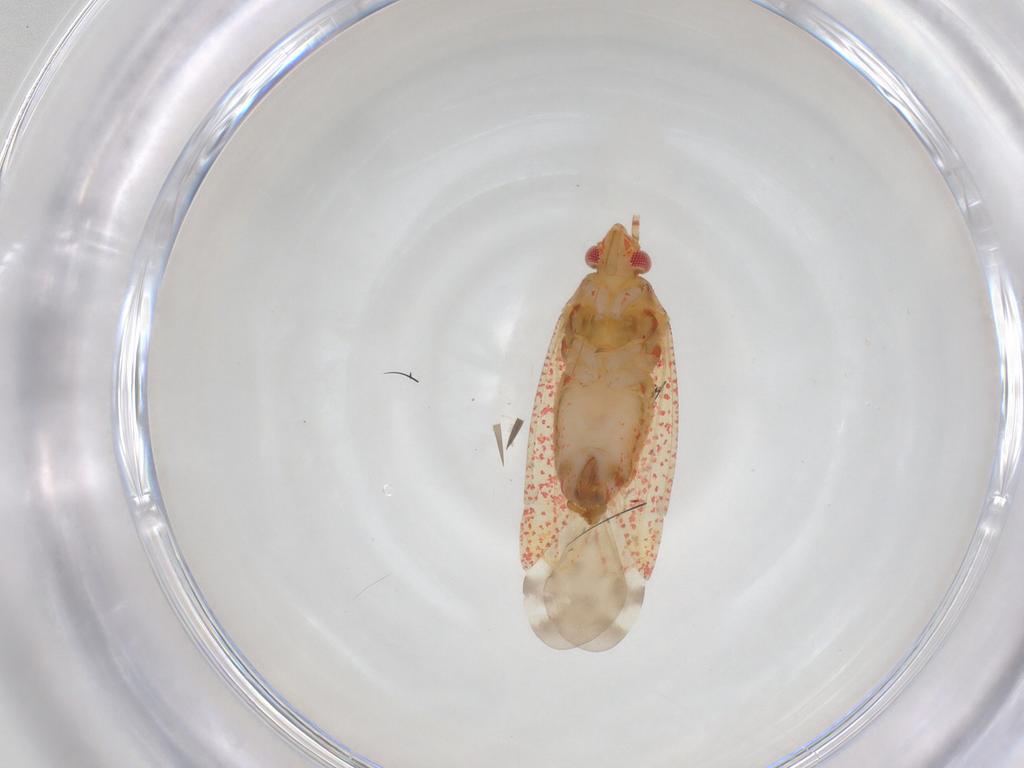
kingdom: Animalia
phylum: Arthropoda
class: Insecta
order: Hemiptera
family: Miridae
